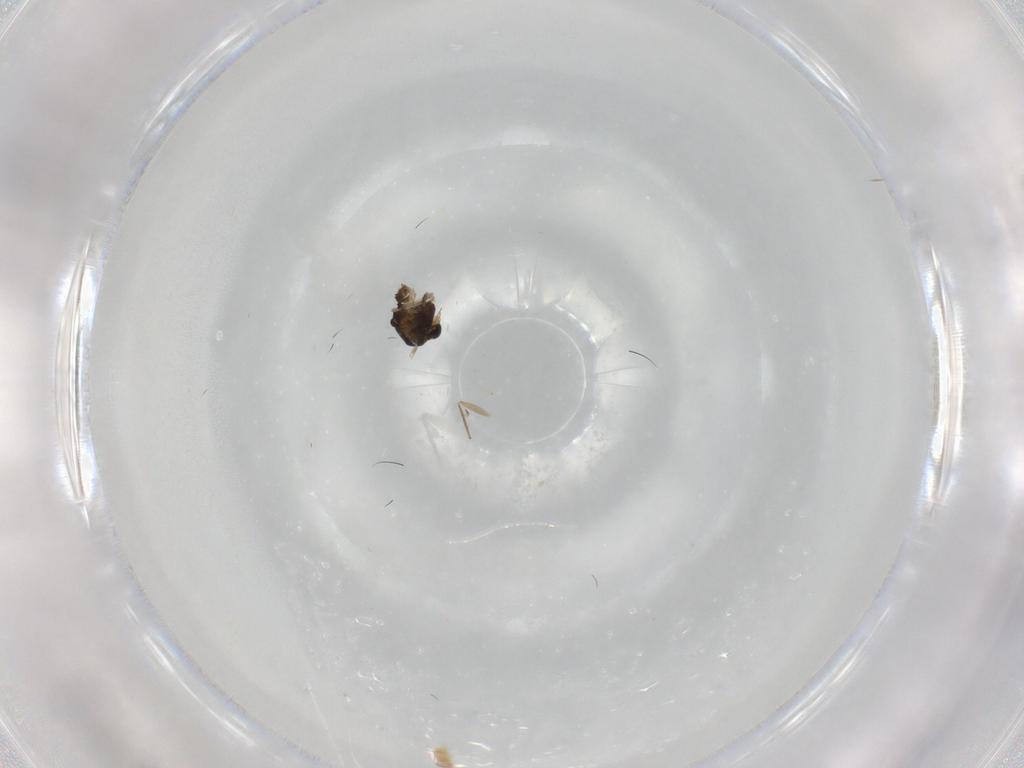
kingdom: Animalia
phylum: Arthropoda
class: Insecta
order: Diptera
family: Chironomidae
